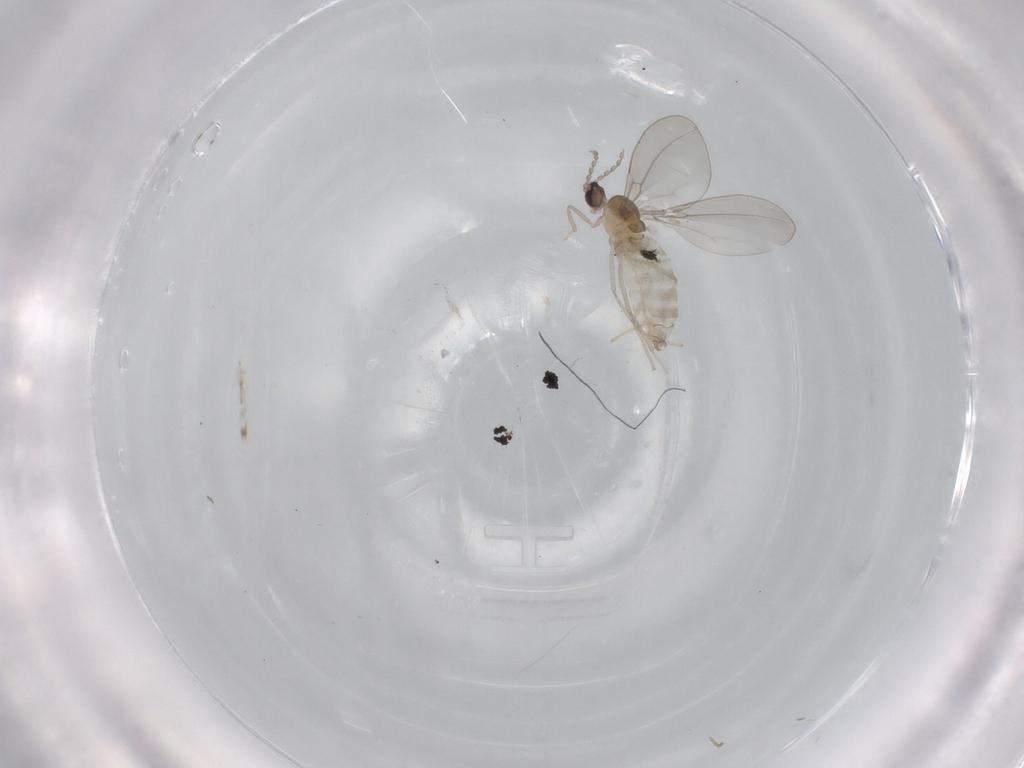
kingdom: Animalia
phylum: Arthropoda
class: Insecta
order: Diptera
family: Cecidomyiidae
